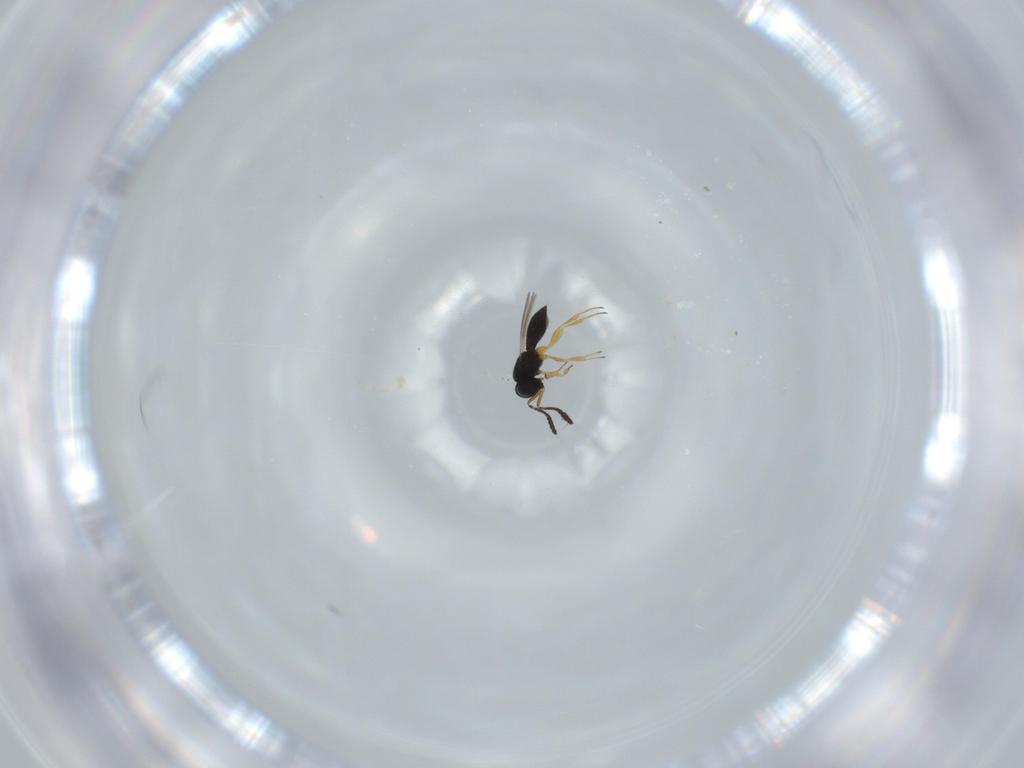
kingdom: Animalia
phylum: Arthropoda
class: Insecta
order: Hymenoptera
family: Scelionidae
